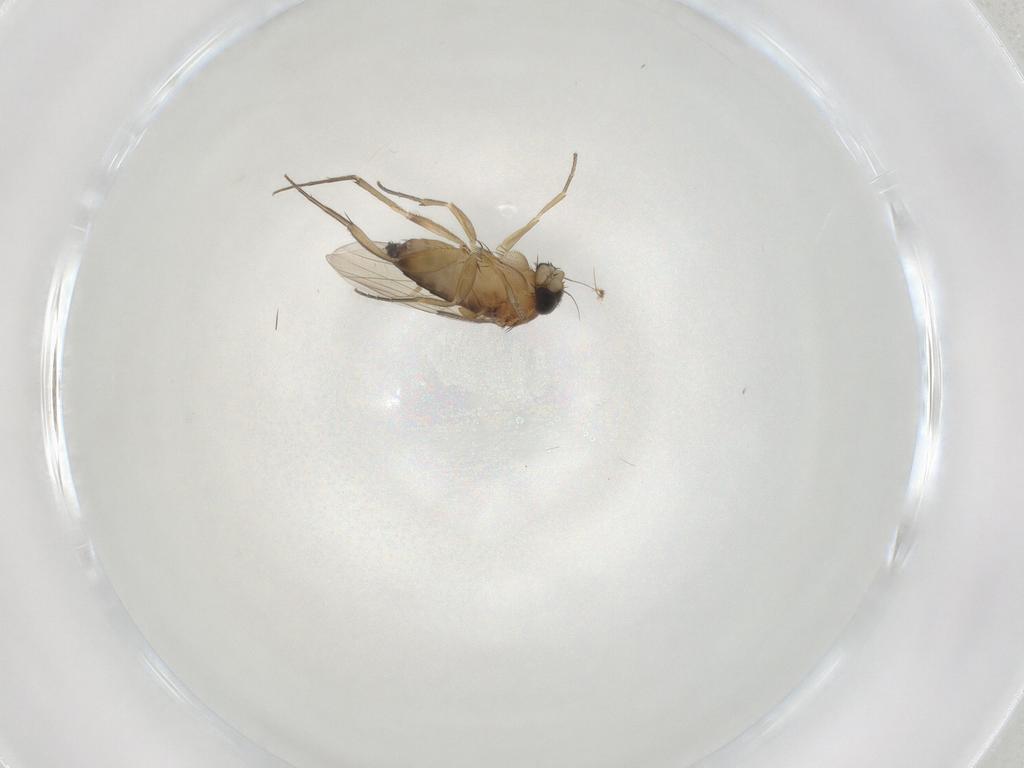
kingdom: Animalia
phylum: Arthropoda
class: Insecta
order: Diptera
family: Phoridae
